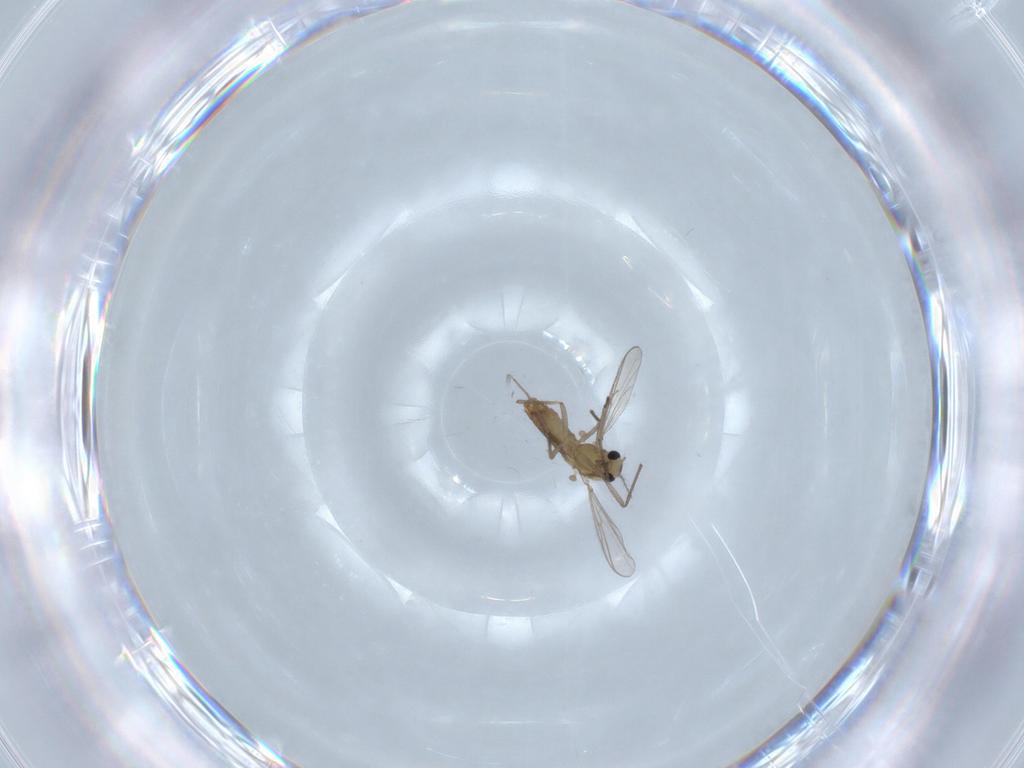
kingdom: Animalia
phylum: Arthropoda
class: Insecta
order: Diptera
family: Chironomidae
